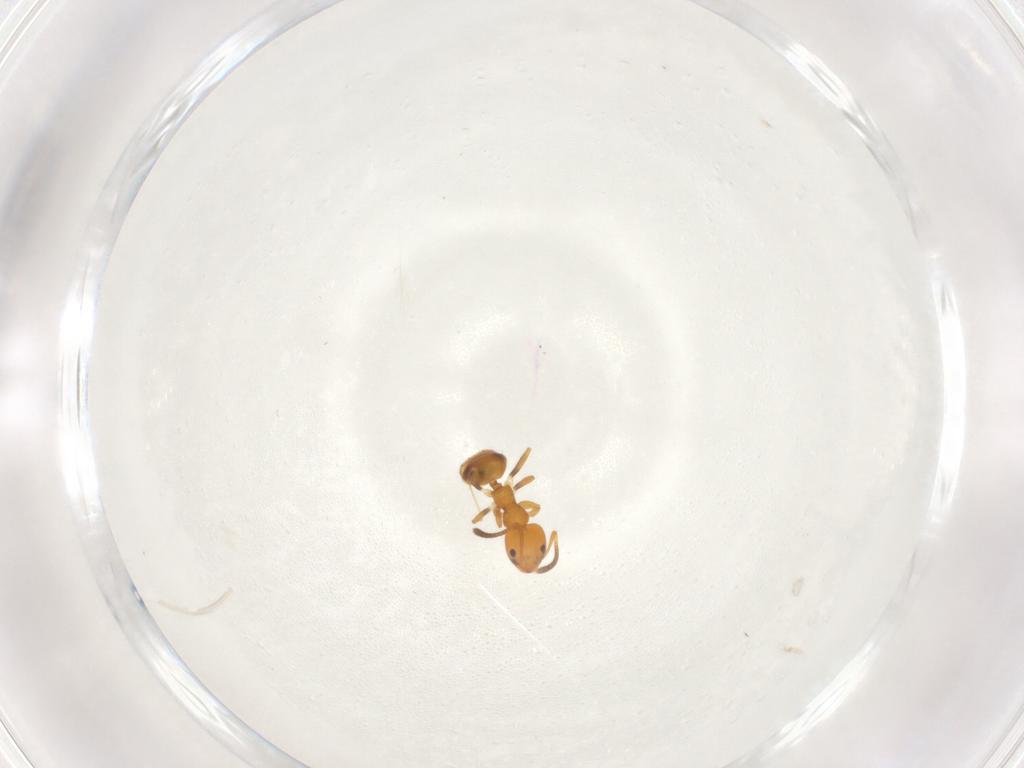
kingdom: Animalia
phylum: Arthropoda
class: Insecta
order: Hymenoptera
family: Formicidae
